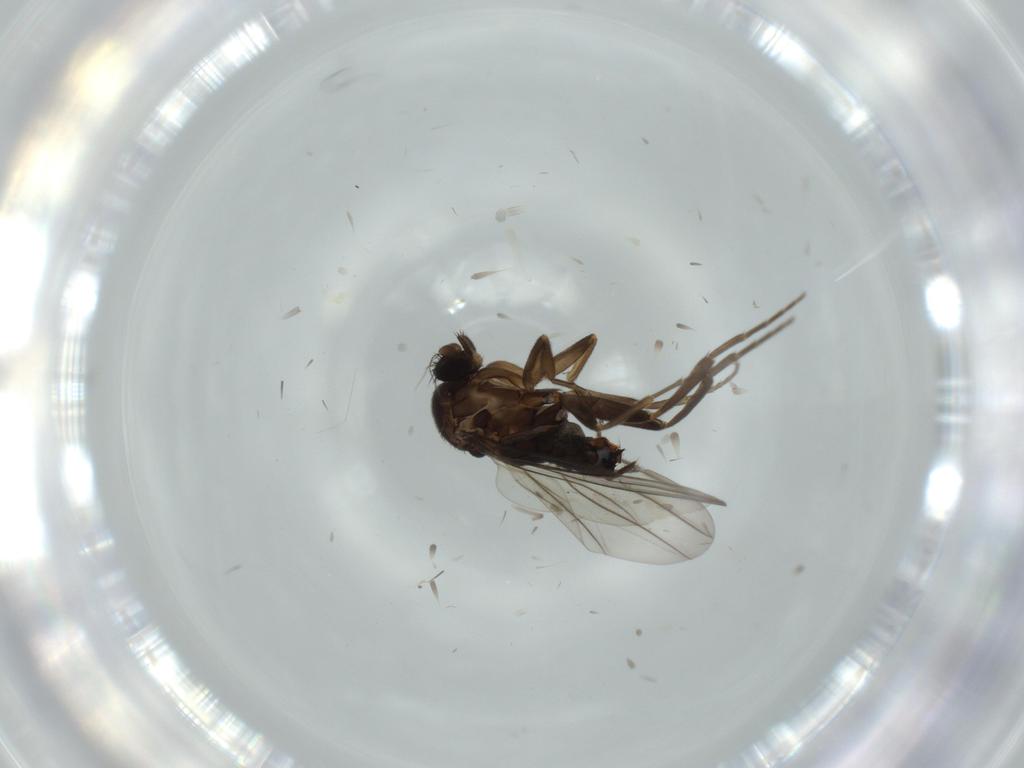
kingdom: Animalia
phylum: Arthropoda
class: Insecta
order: Diptera
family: Chironomidae
